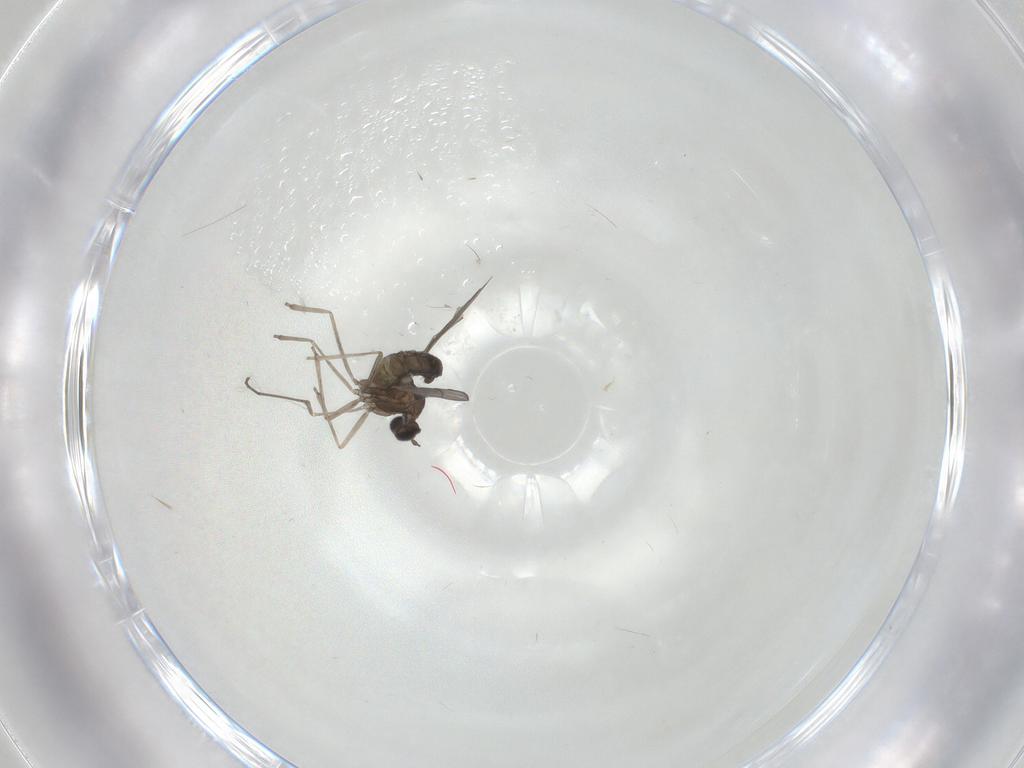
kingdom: Animalia
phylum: Arthropoda
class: Insecta
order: Diptera
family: Cecidomyiidae
